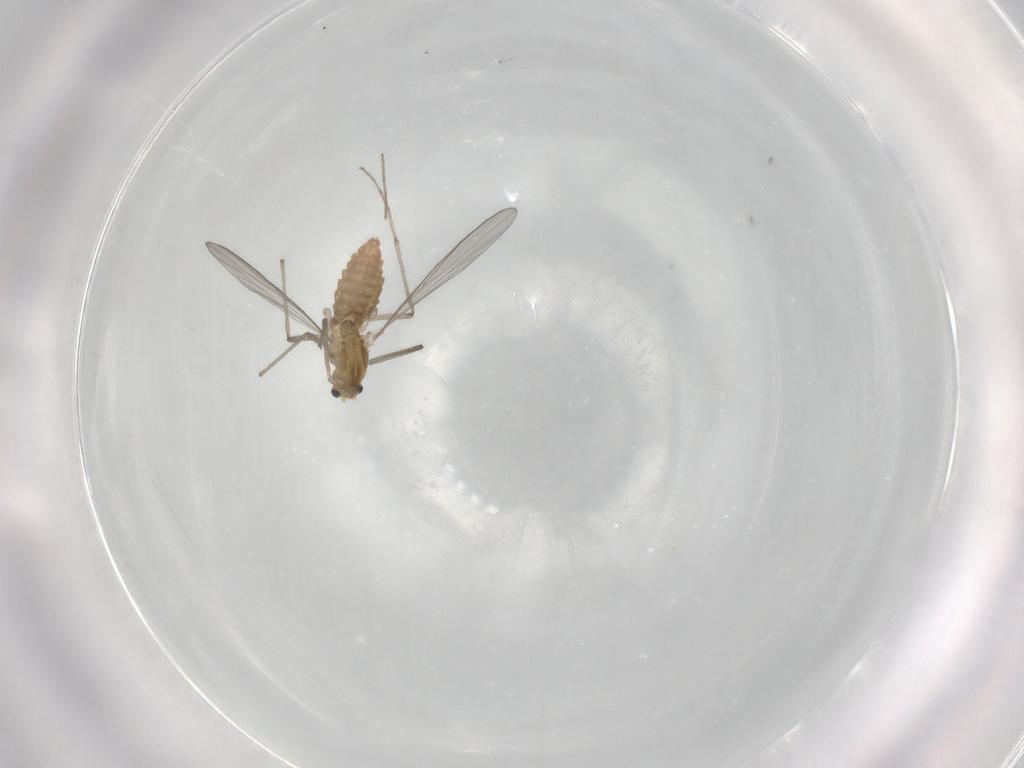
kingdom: Animalia
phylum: Arthropoda
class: Insecta
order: Diptera
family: Chironomidae
